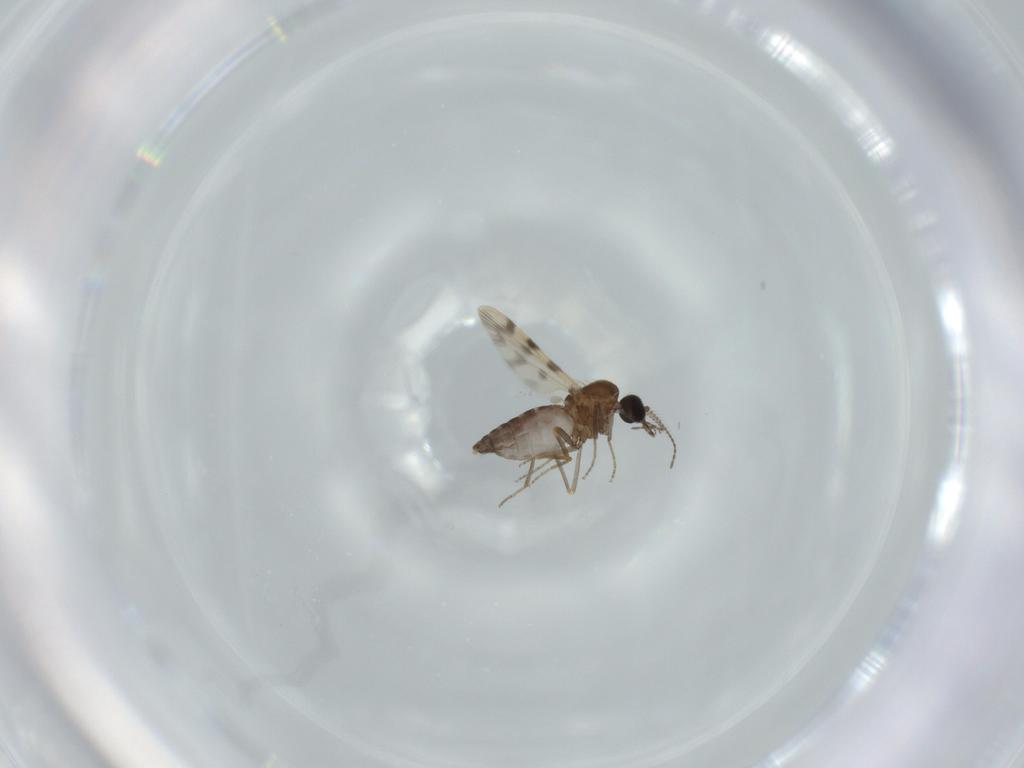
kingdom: Animalia
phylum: Arthropoda
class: Insecta
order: Diptera
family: Ceratopogonidae
